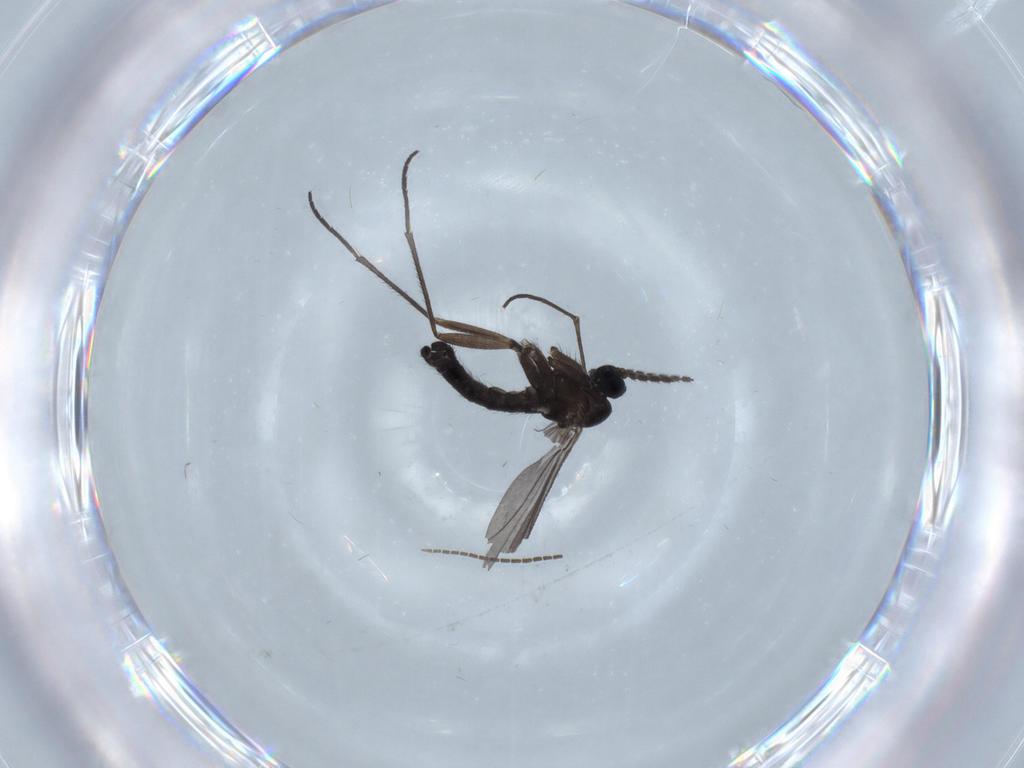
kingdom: Animalia
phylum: Arthropoda
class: Insecta
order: Diptera
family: Sciaridae
